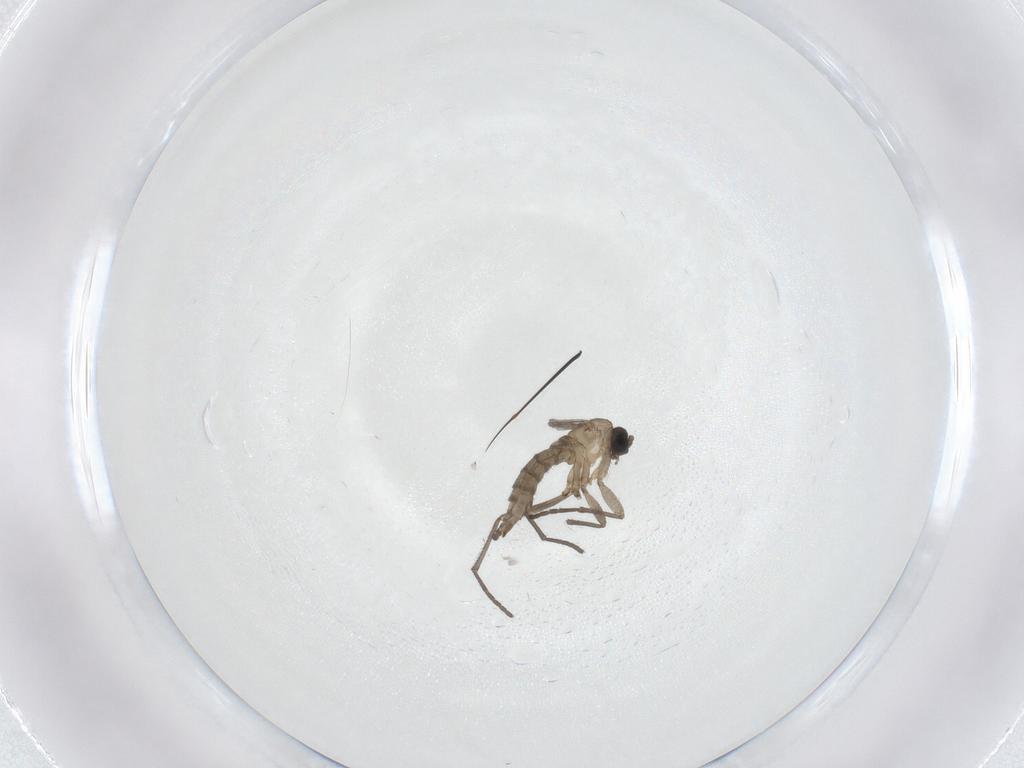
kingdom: Animalia
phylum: Arthropoda
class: Insecta
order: Diptera
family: Sciaridae
